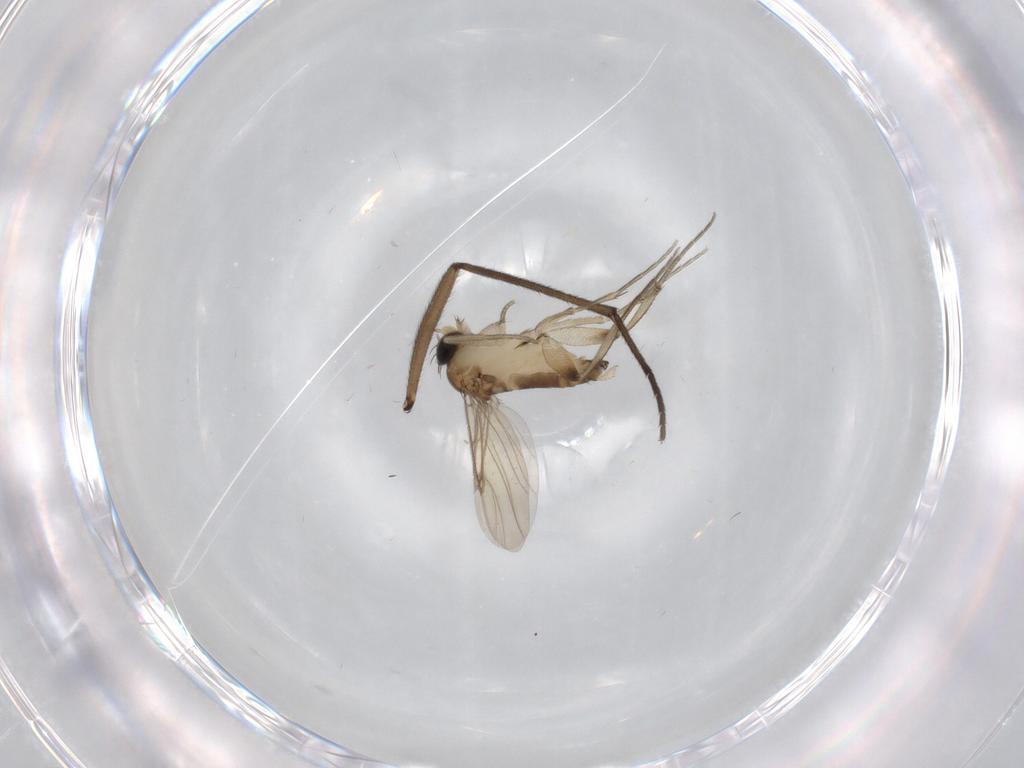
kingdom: Animalia
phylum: Arthropoda
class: Insecta
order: Diptera
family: Phoridae
